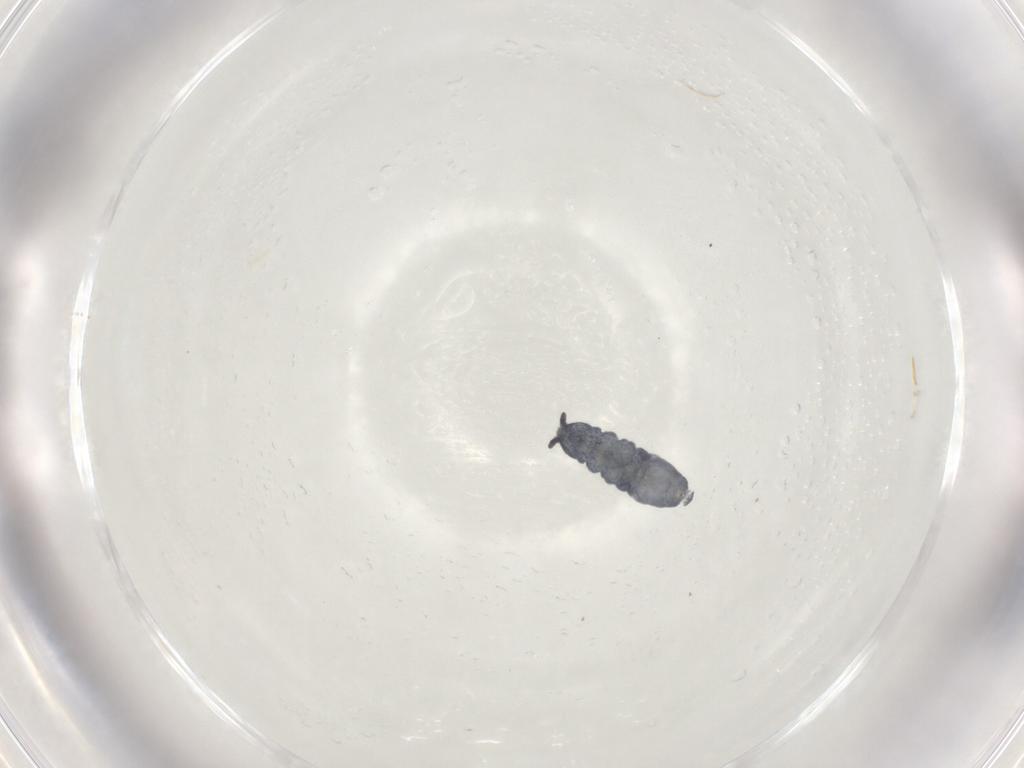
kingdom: Animalia
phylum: Arthropoda
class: Collembola
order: Poduromorpha
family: Hypogastruridae
